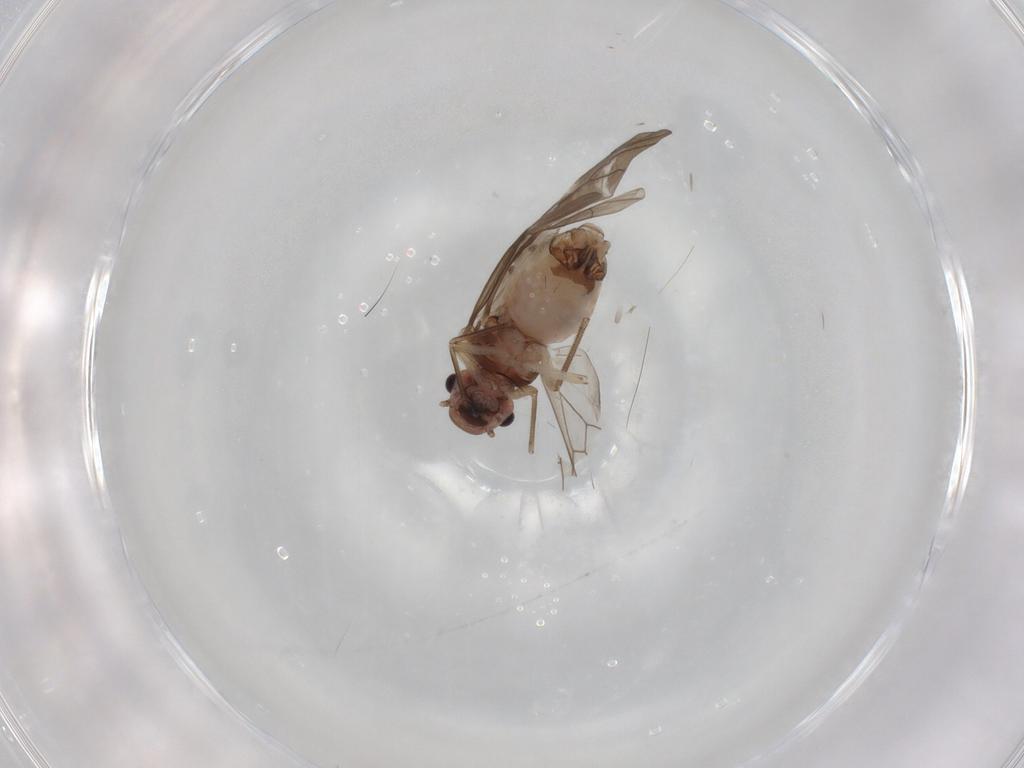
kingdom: Animalia
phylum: Arthropoda
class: Insecta
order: Psocodea
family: Peripsocidae
